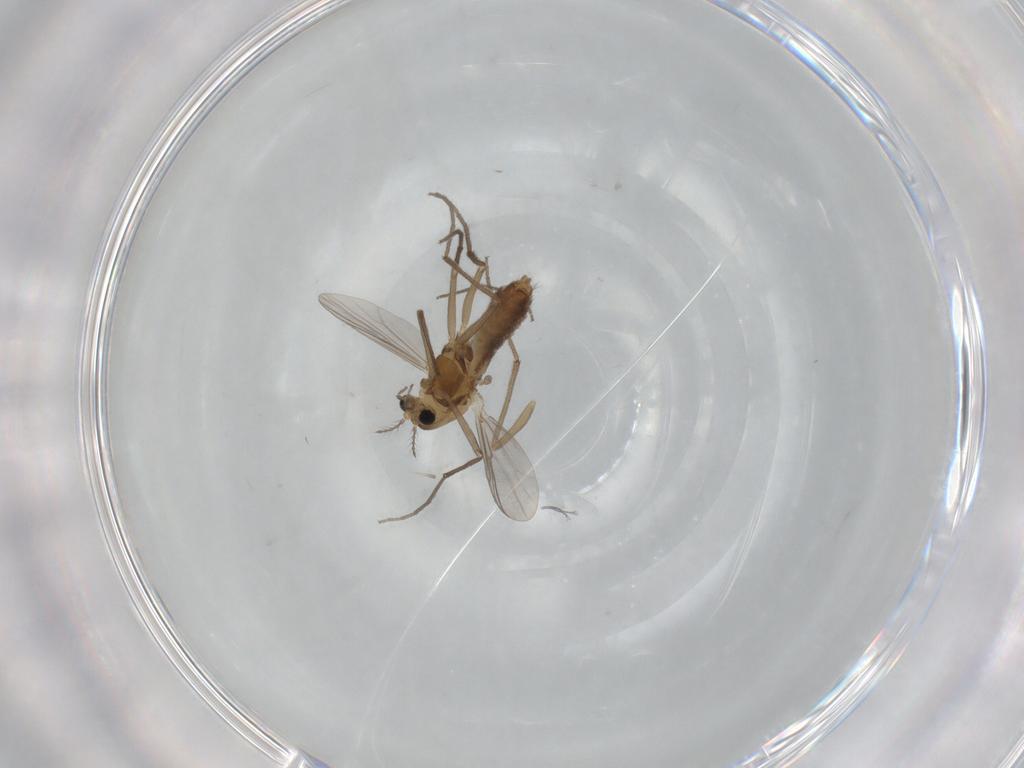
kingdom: Animalia
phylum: Arthropoda
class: Insecta
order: Diptera
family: Chironomidae
